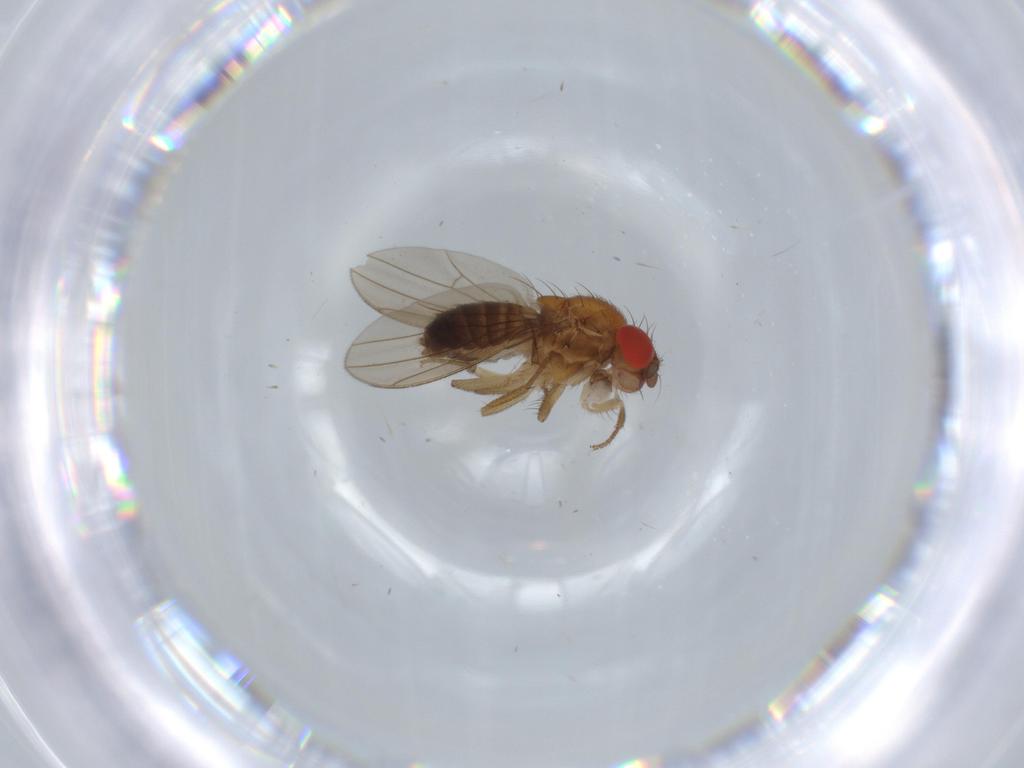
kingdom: Animalia
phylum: Arthropoda
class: Insecta
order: Diptera
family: Drosophilidae
